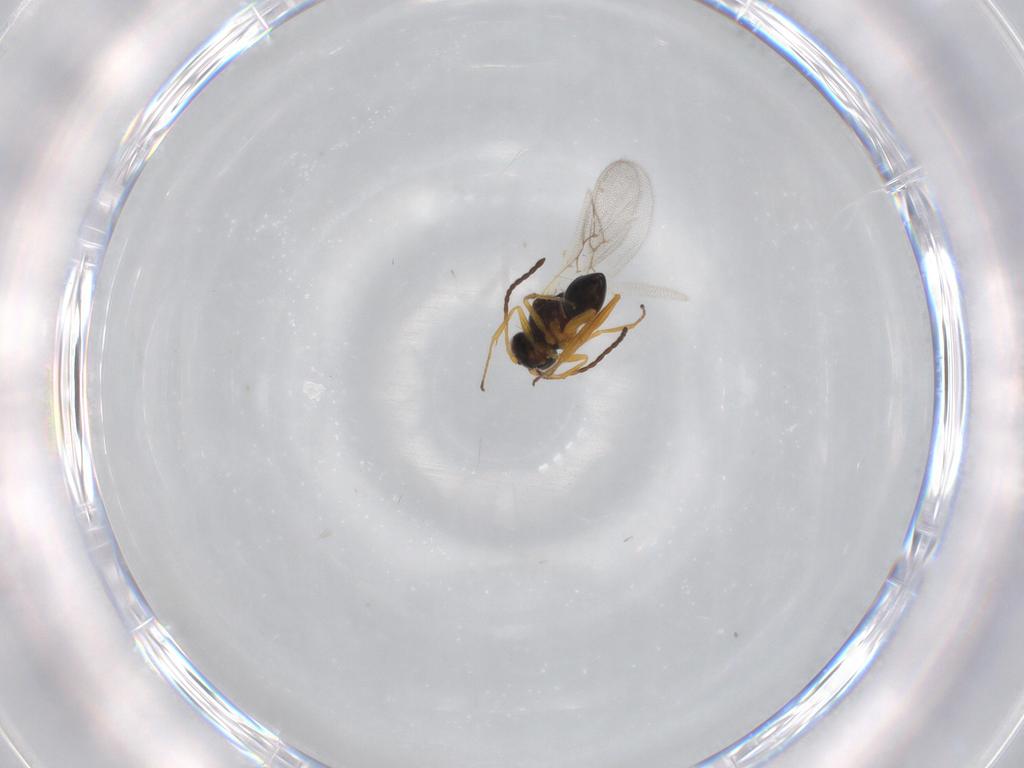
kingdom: Animalia
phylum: Arthropoda
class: Insecta
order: Hymenoptera
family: Figitidae
